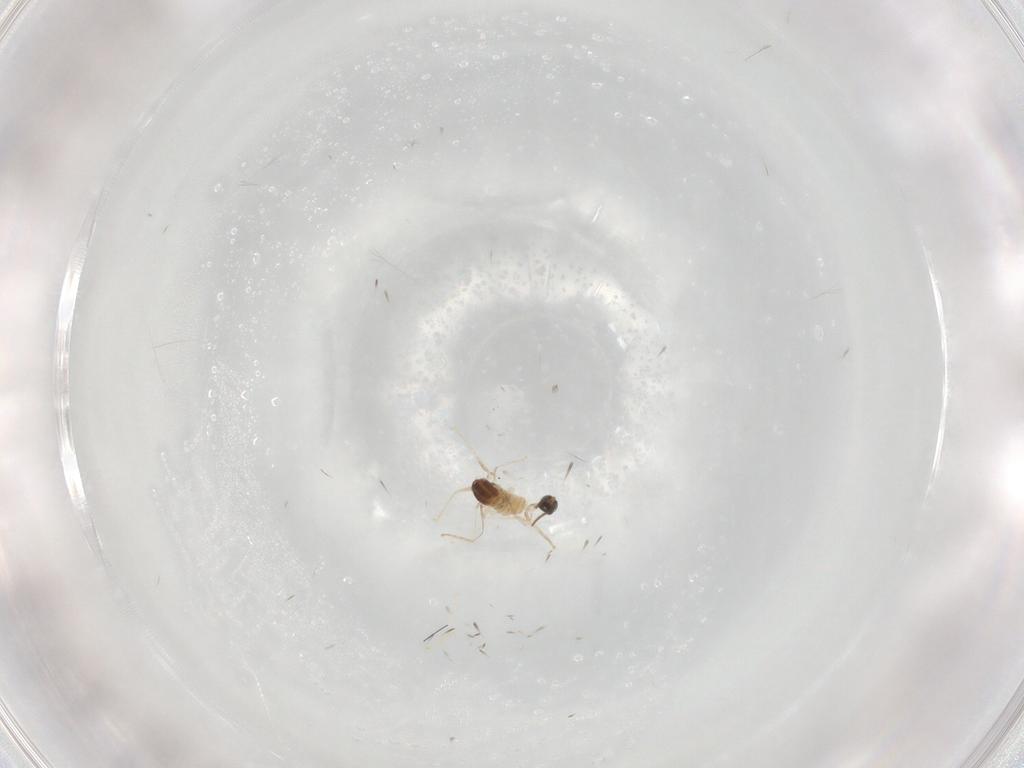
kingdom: Animalia
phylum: Arthropoda
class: Insecta
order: Diptera
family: Cecidomyiidae
